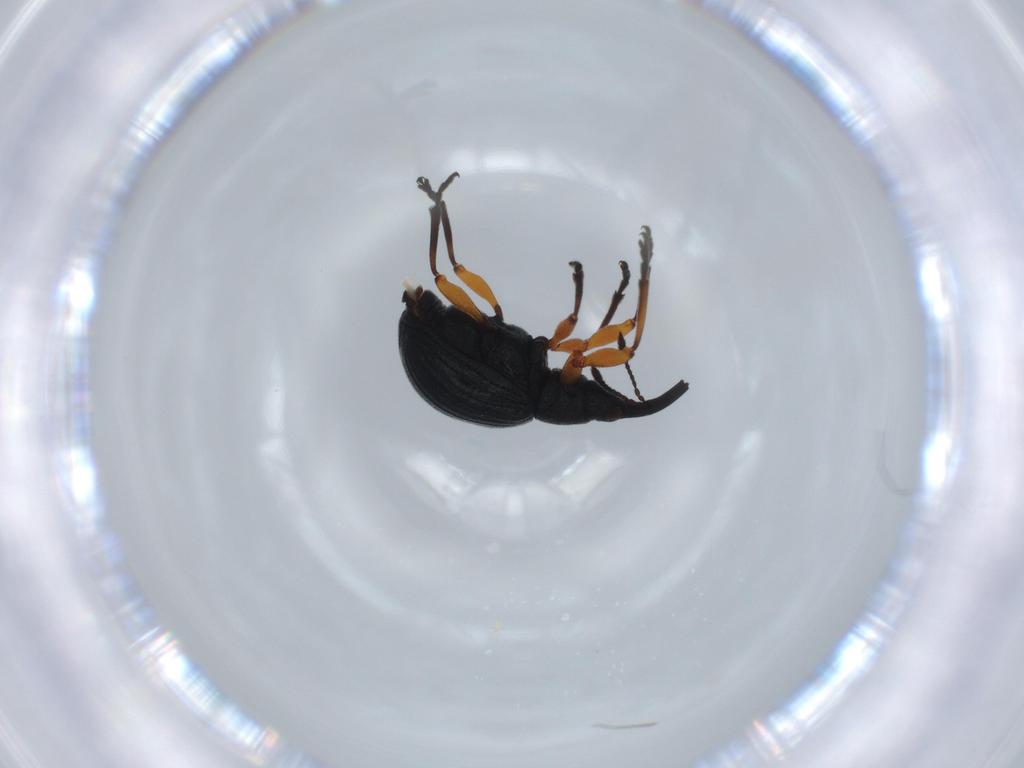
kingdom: Animalia
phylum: Arthropoda
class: Insecta
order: Coleoptera
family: Brentidae
